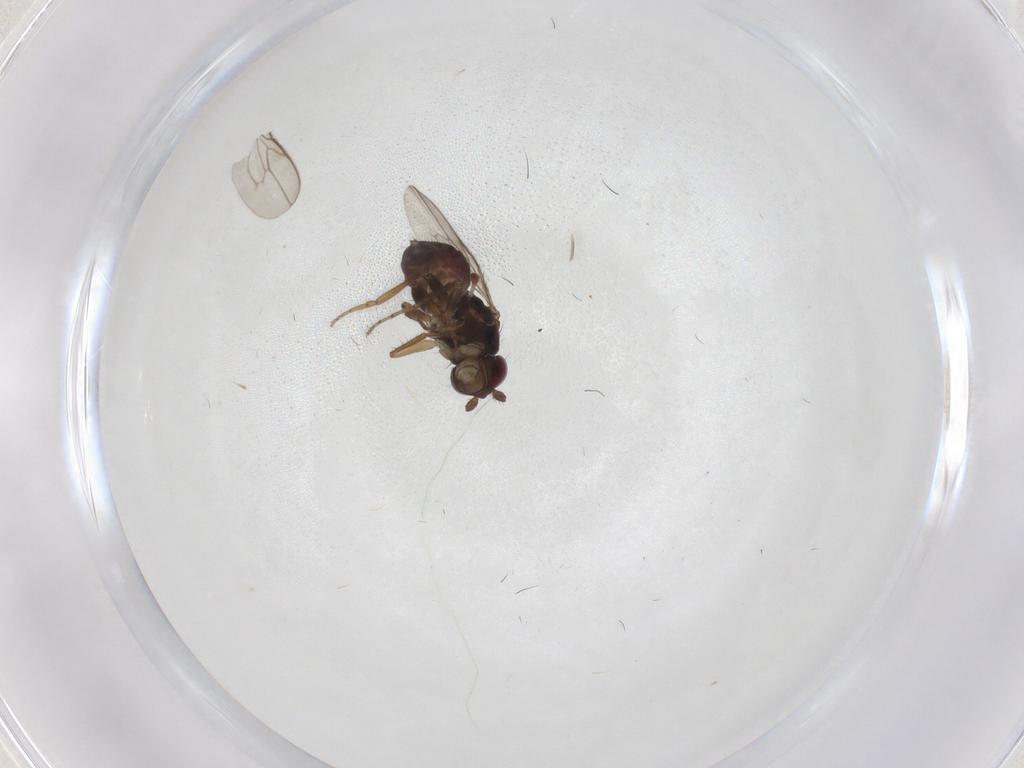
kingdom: Animalia
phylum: Arthropoda
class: Insecta
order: Diptera
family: Sphaeroceridae
